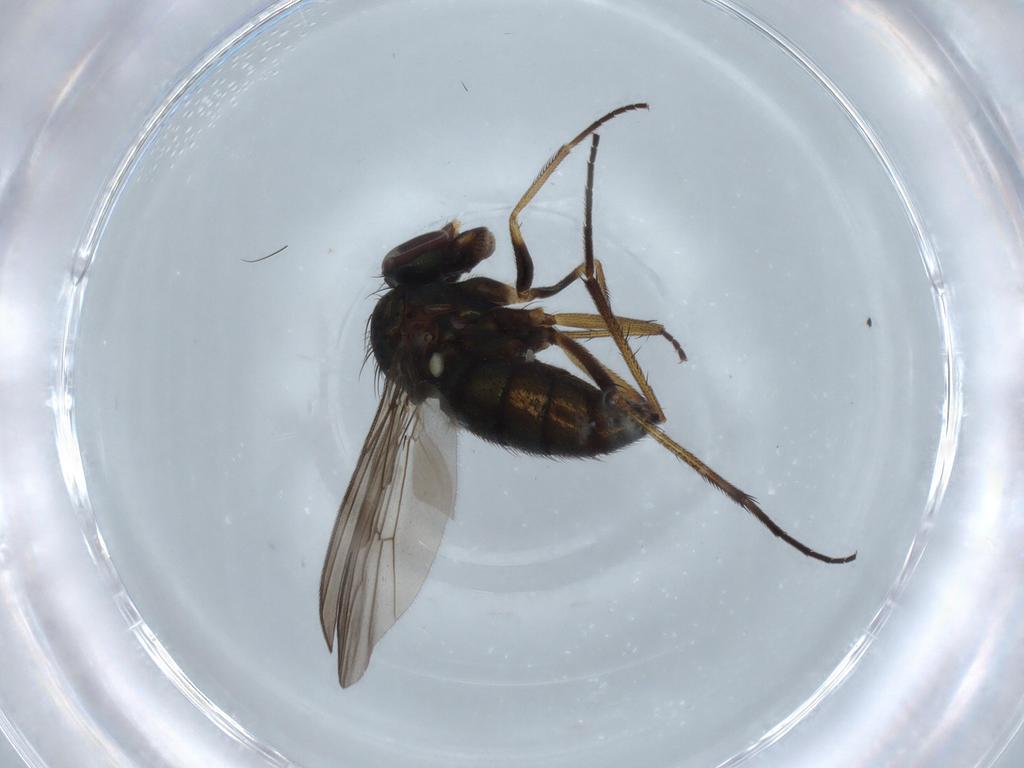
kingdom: Animalia
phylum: Arthropoda
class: Insecta
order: Diptera
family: Dolichopodidae
